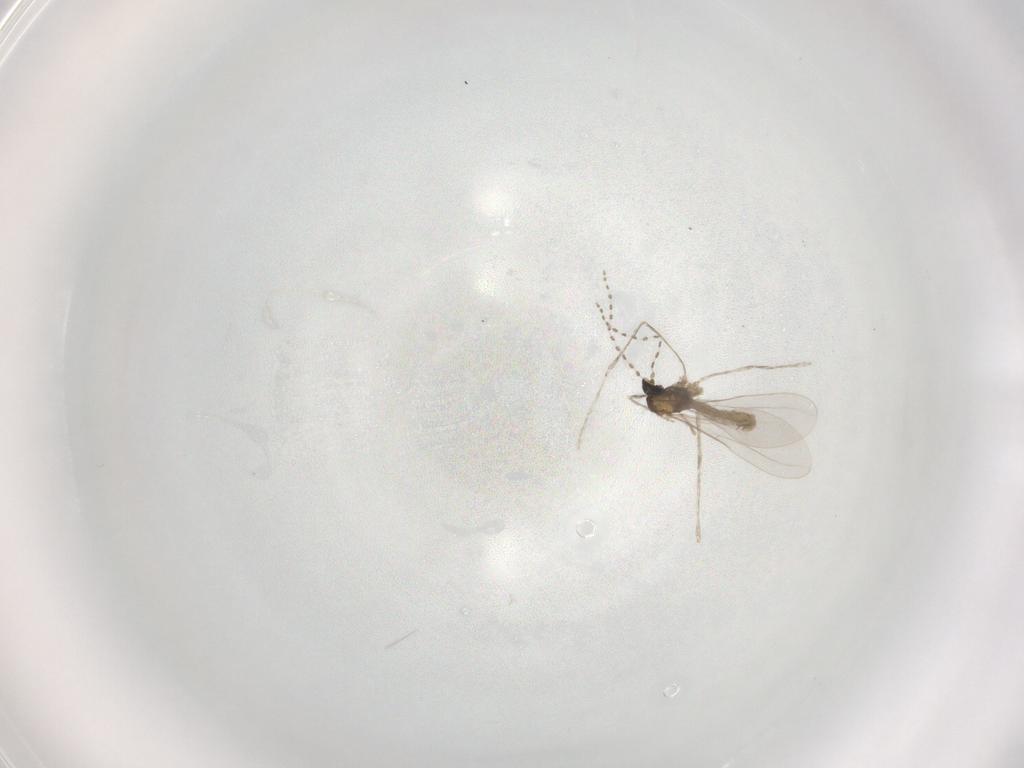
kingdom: Animalia
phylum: Arthropoda
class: Insecta
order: Diptera
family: Cecidomyiidae
